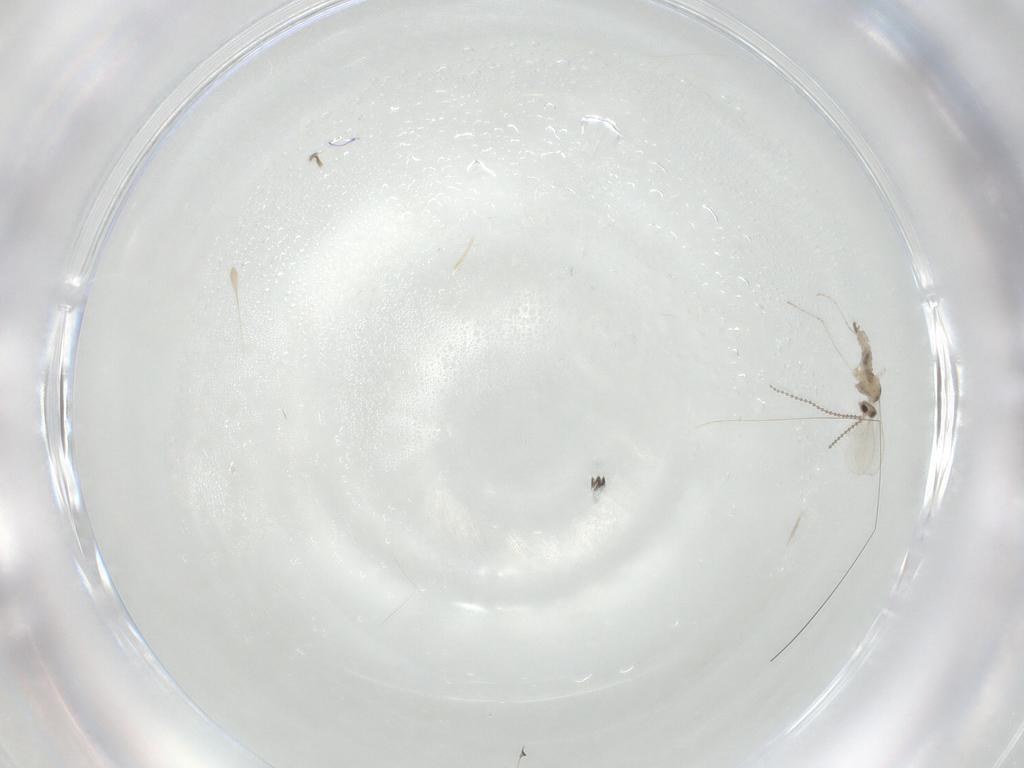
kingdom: Animalia
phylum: Arthropoda
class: Insecta
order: Diptera
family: Cecidomyiidae
